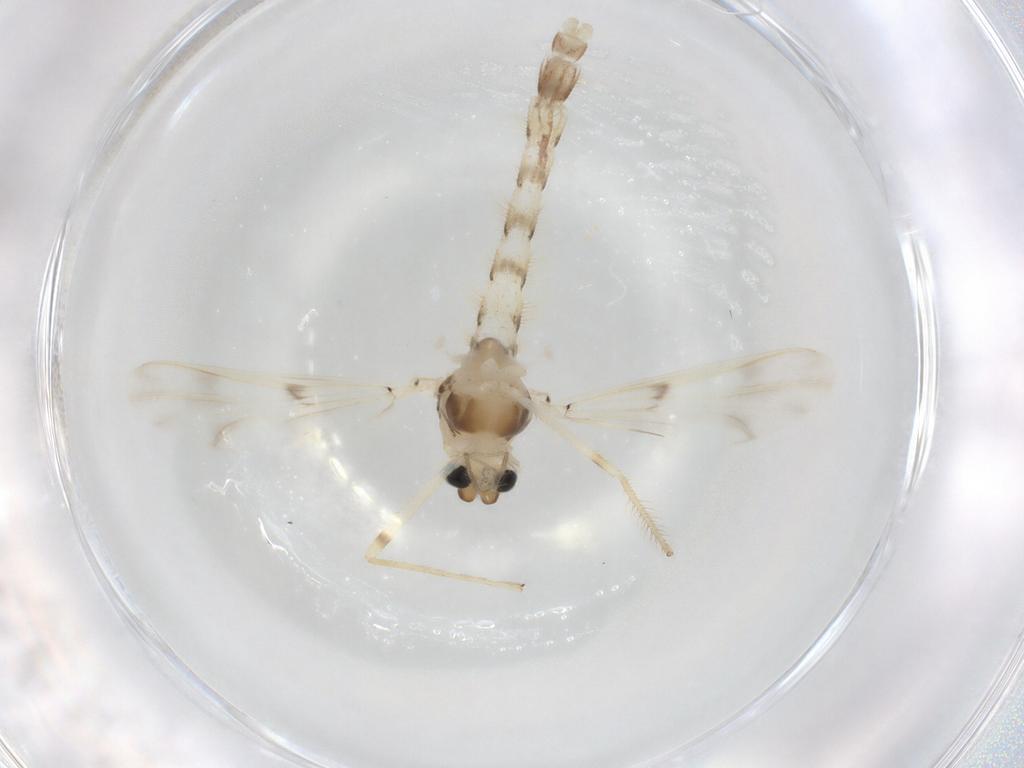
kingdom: Animalia
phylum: Arthropoda
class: Insecta
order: Diptera
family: Chironomidae
